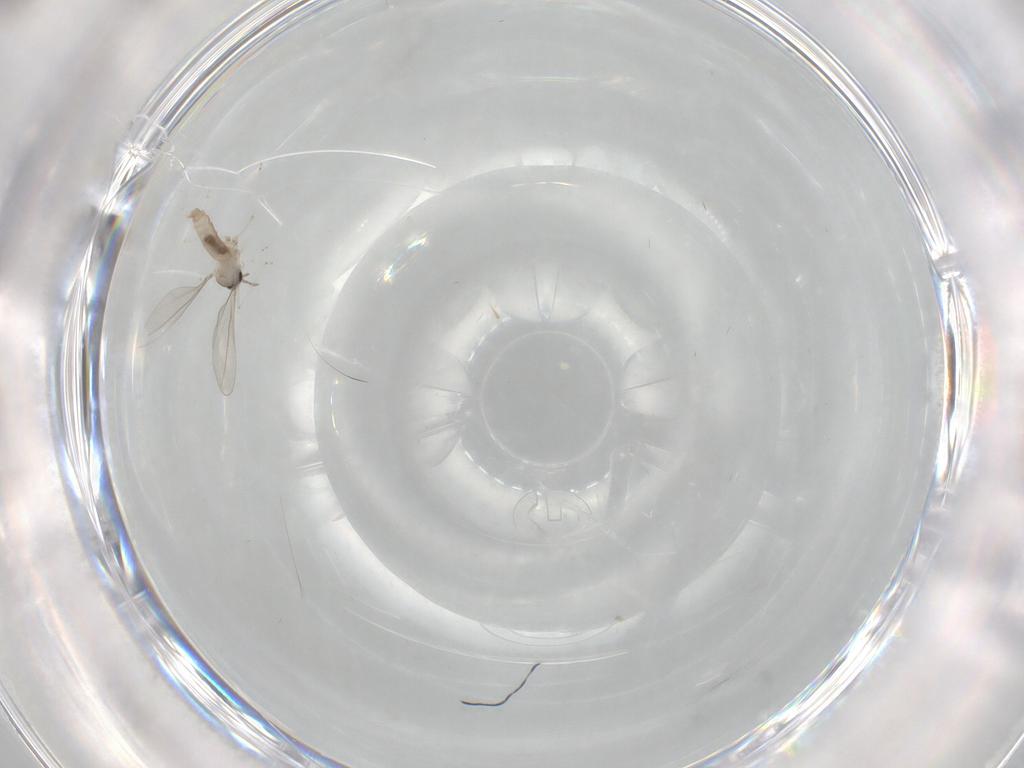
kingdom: Animalia
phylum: Arthropoda
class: Insecta
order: Diptera
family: Cecidomyiidae
